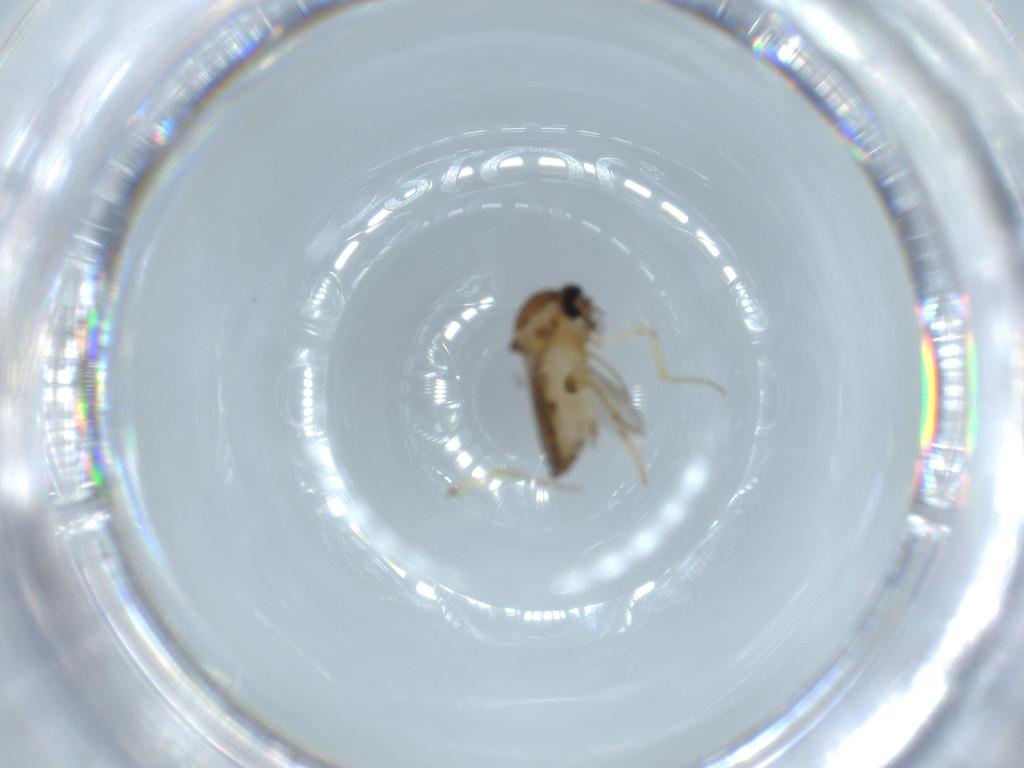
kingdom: Animalia
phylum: Arthropoda
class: Insecta
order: Diptera
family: Ceratopogonidae
